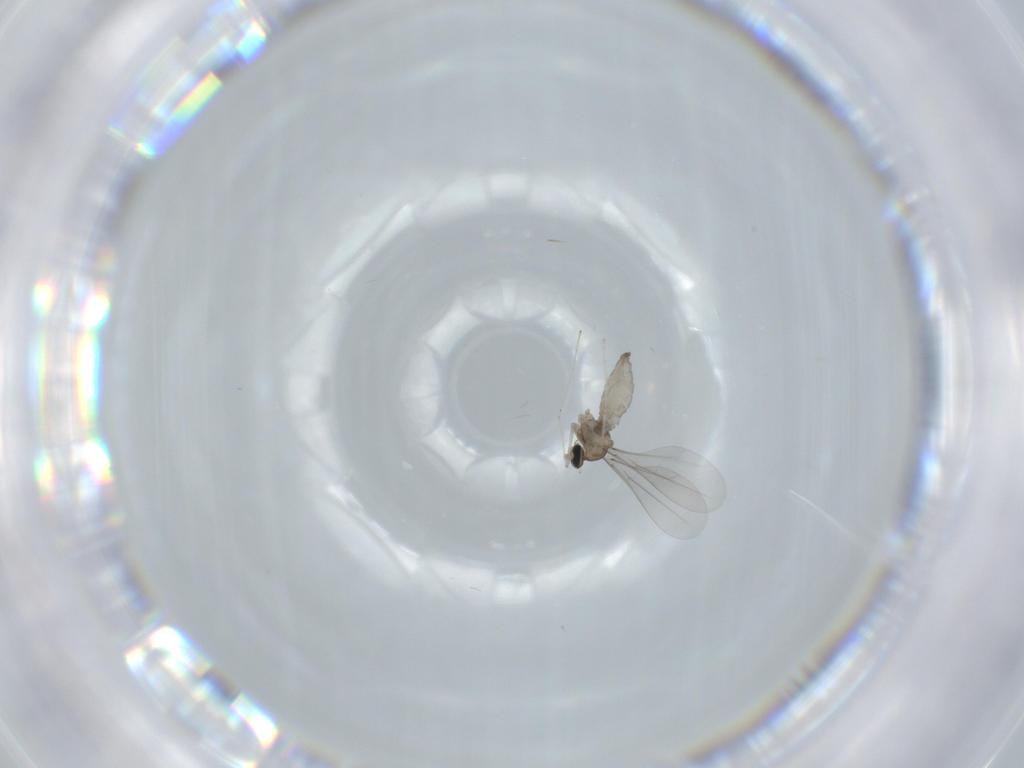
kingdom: Animalia
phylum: Arthropoda
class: Insecta
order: Diptera
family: Cecidomyiidae
